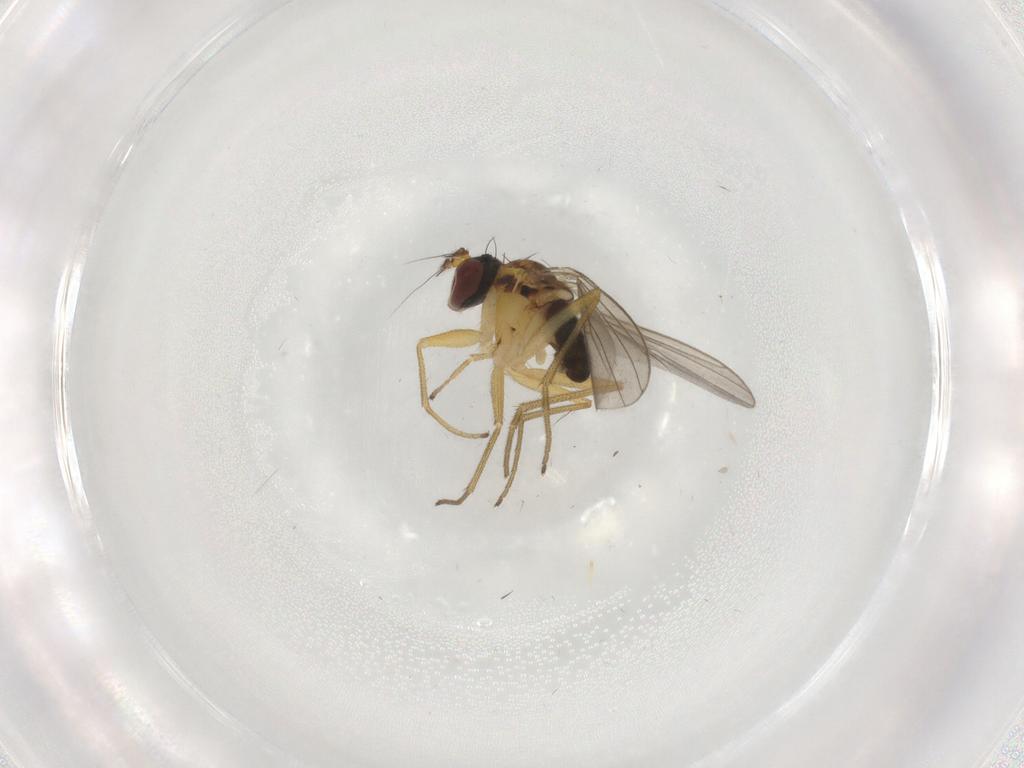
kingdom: Animalia
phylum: Arthropoda
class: Insecta
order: Diptera
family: Dolichopodidae
